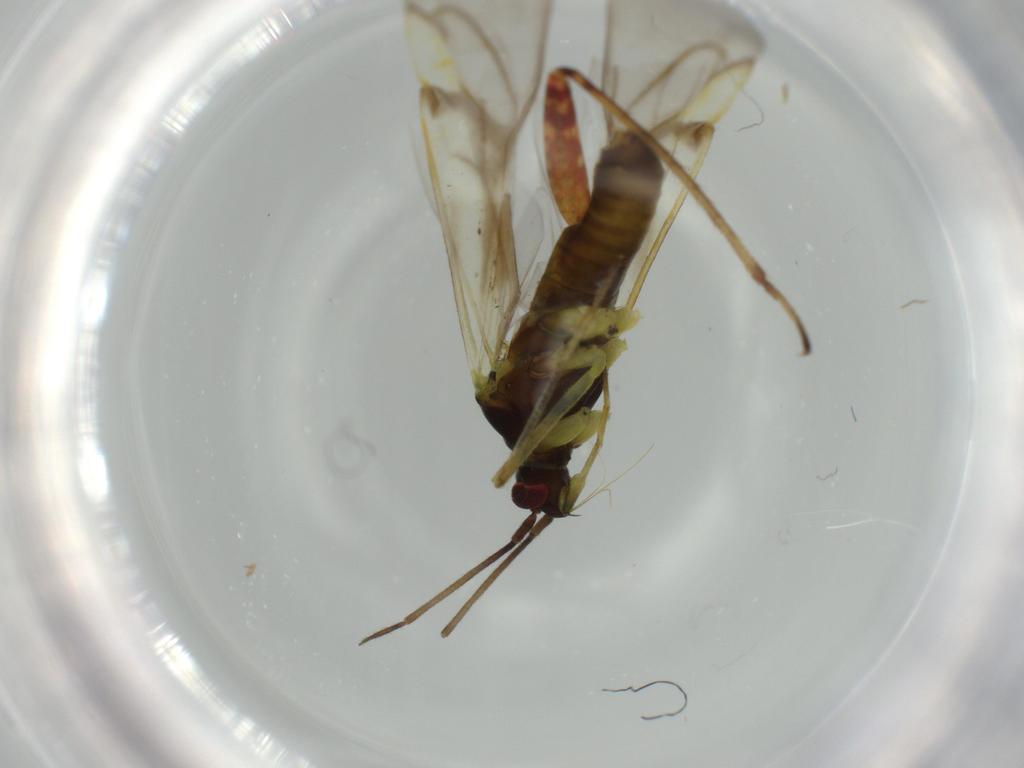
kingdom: Animalia
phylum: Arthropoda
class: Insecta
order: Hemiptera
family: Miridae
